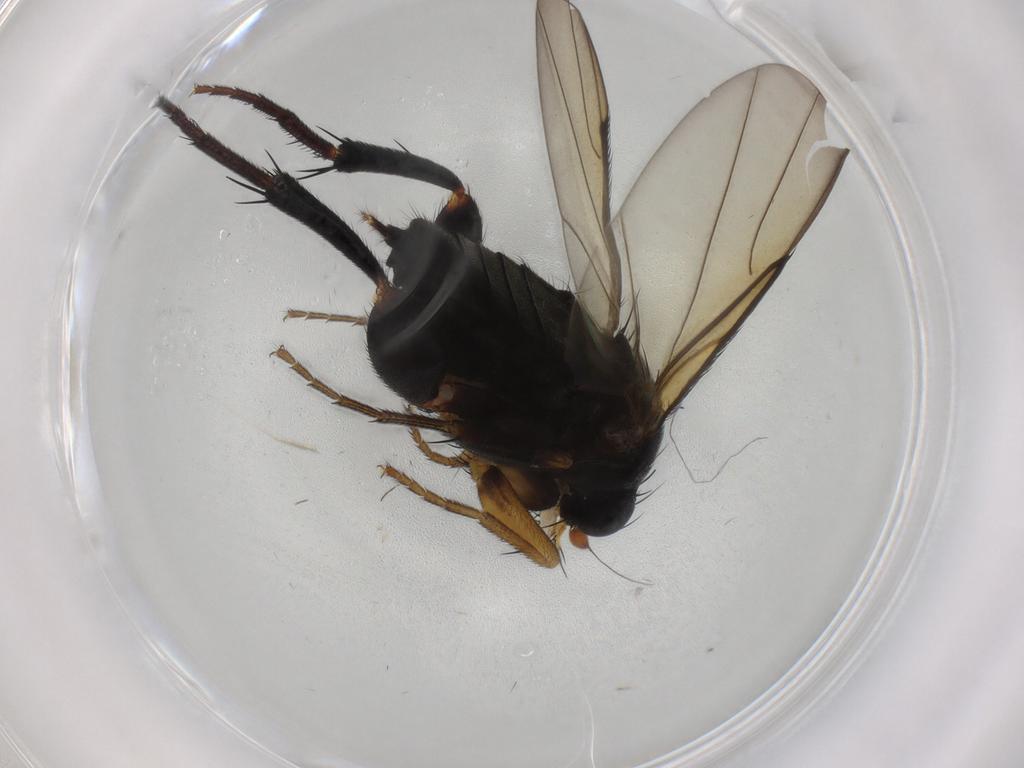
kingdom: Animalia
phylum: Arthropoda
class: Insecta
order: Diptera
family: Phoridae
